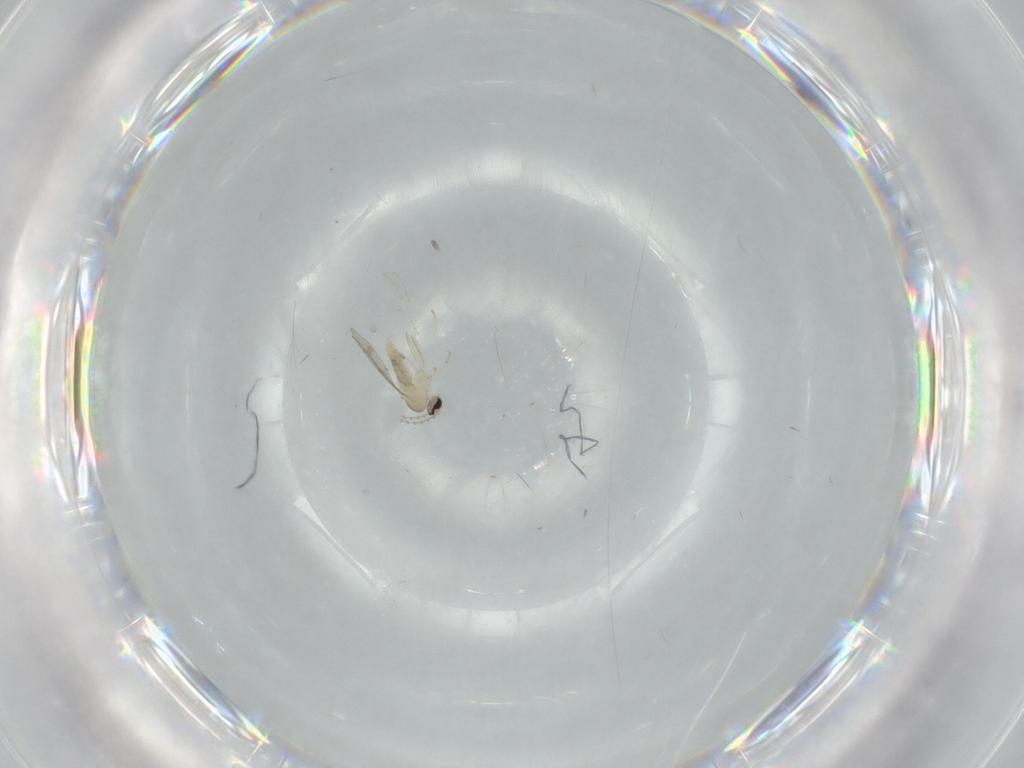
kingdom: Animalia
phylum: Arthropoda
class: Insecta
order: Diptera
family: Cecidomyiidae
